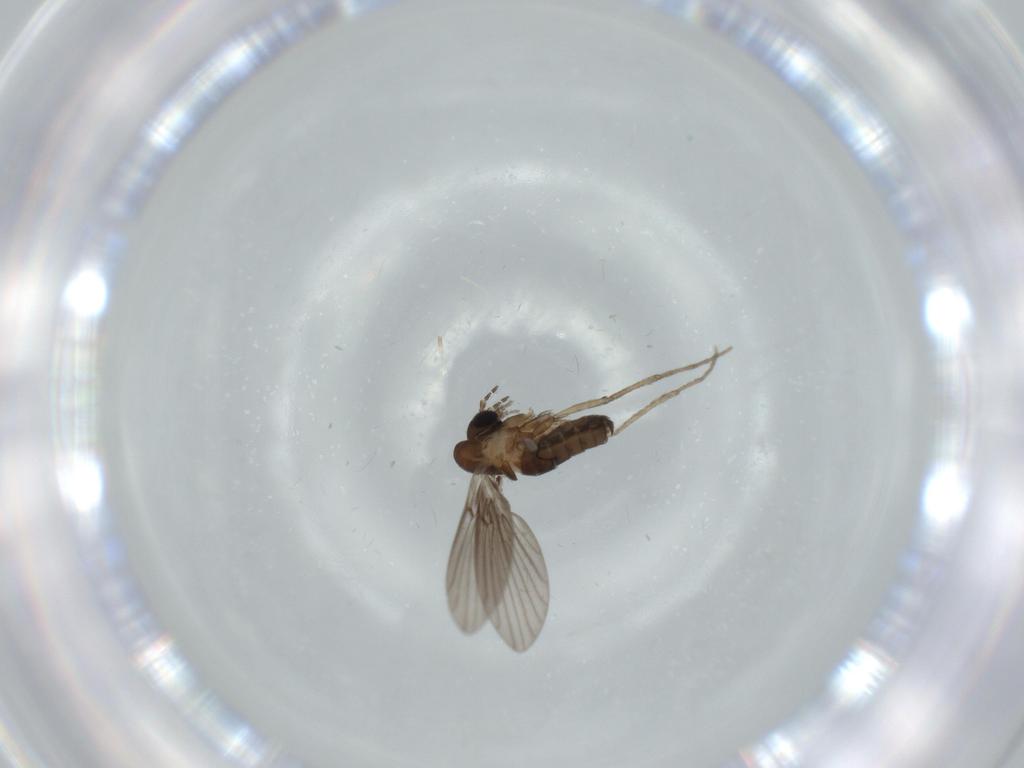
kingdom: Animalia
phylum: Arthropoda
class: Insecta
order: Diptera
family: Psychodidae
